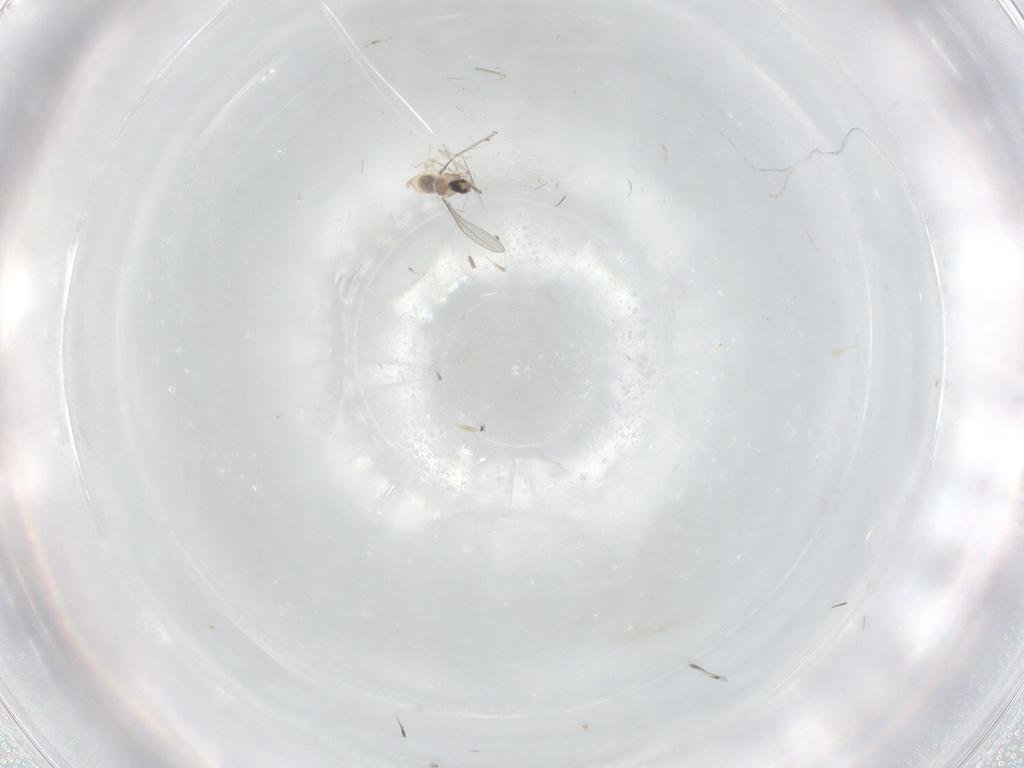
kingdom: Animalia
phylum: Arthropoda
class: Insecta
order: Diptera
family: Cecidomyiidae
